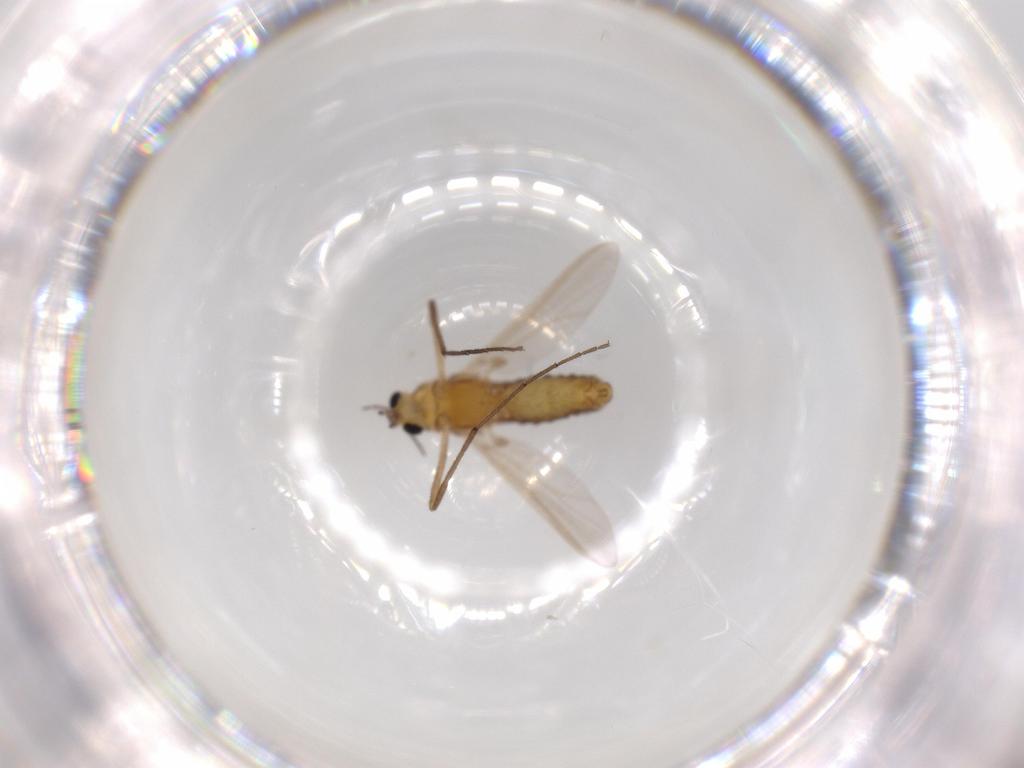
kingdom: Animalia
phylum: Arthropoda
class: Insecta
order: Diptera
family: Chironomidae
